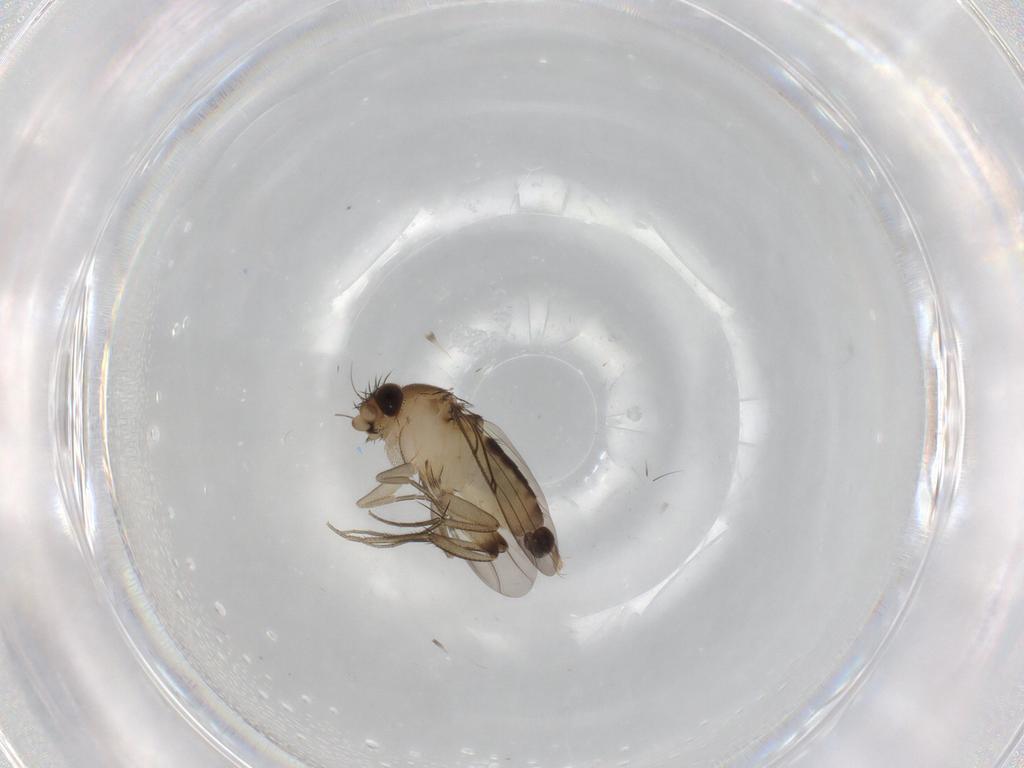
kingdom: Animalia
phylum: Arthropoda
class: Insecta
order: Diptera
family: Phoridae
